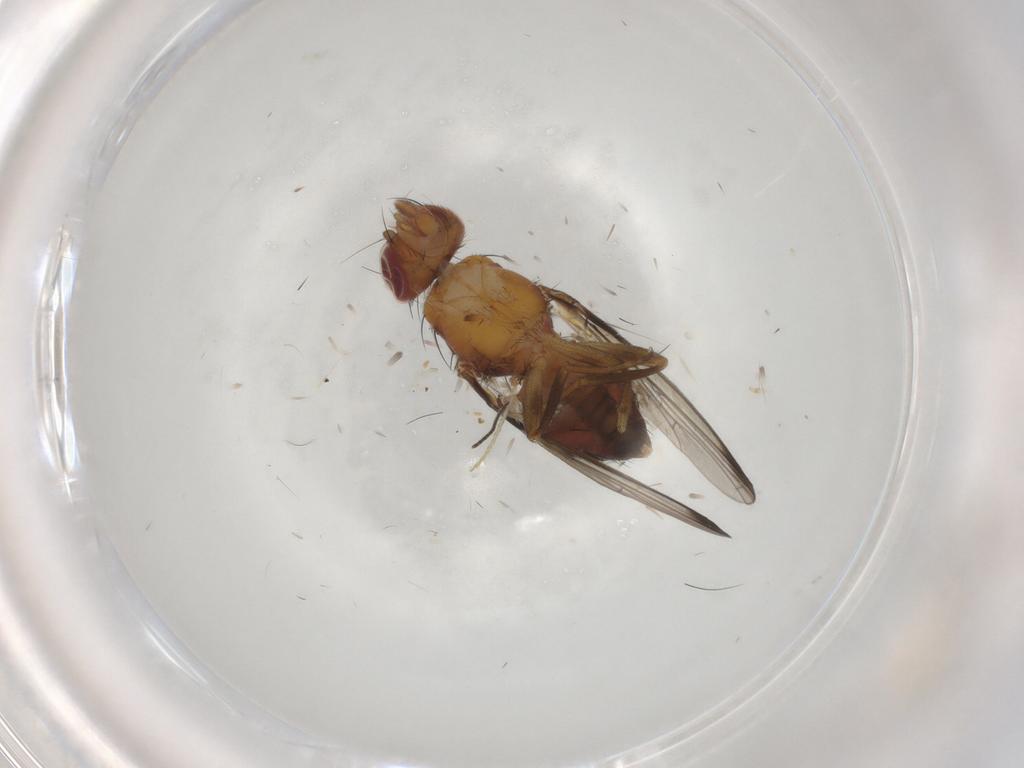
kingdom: Animalia
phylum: Arthropoda
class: Insecta
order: Diptera
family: Piophilidae
